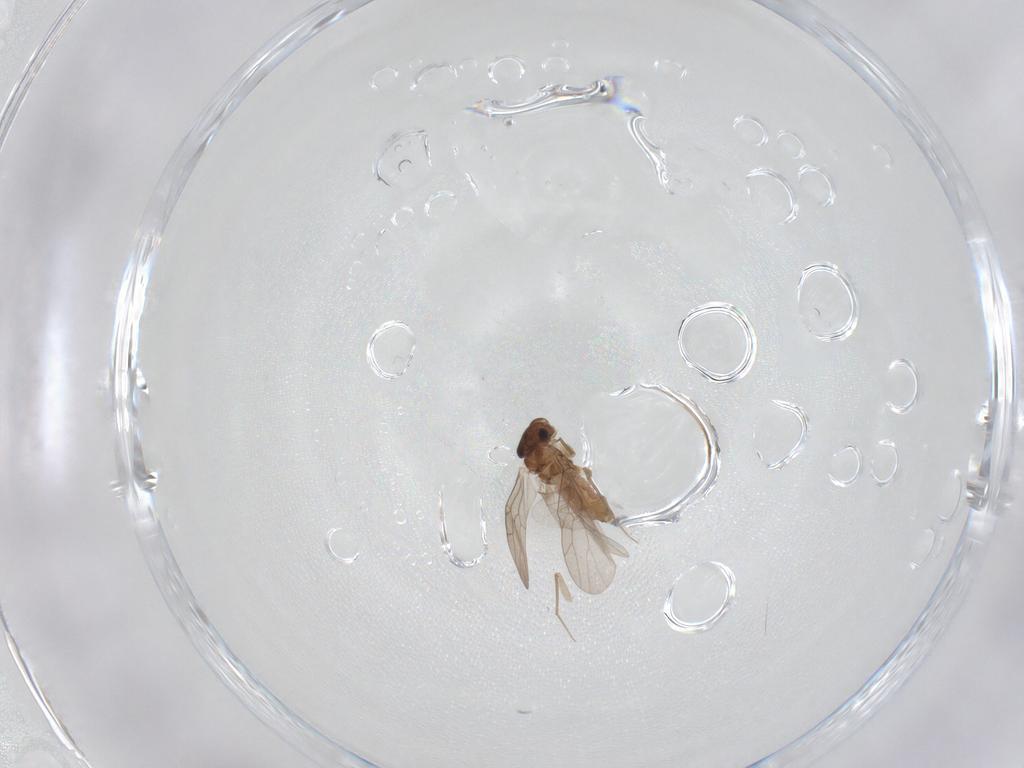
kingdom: Animalia
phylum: Arthropoda
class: Insecta
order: Psocodea
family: Lepidopsocidae
